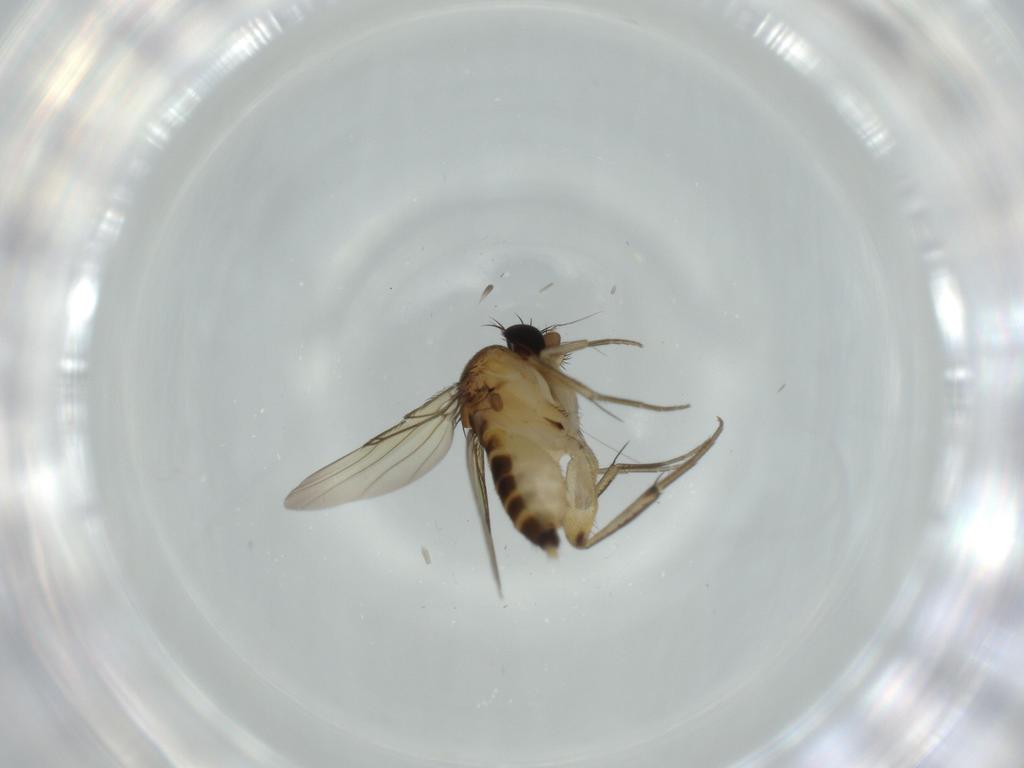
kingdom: Animalia
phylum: Arthropoda
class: Insecta
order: Diptera
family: Phoridae
